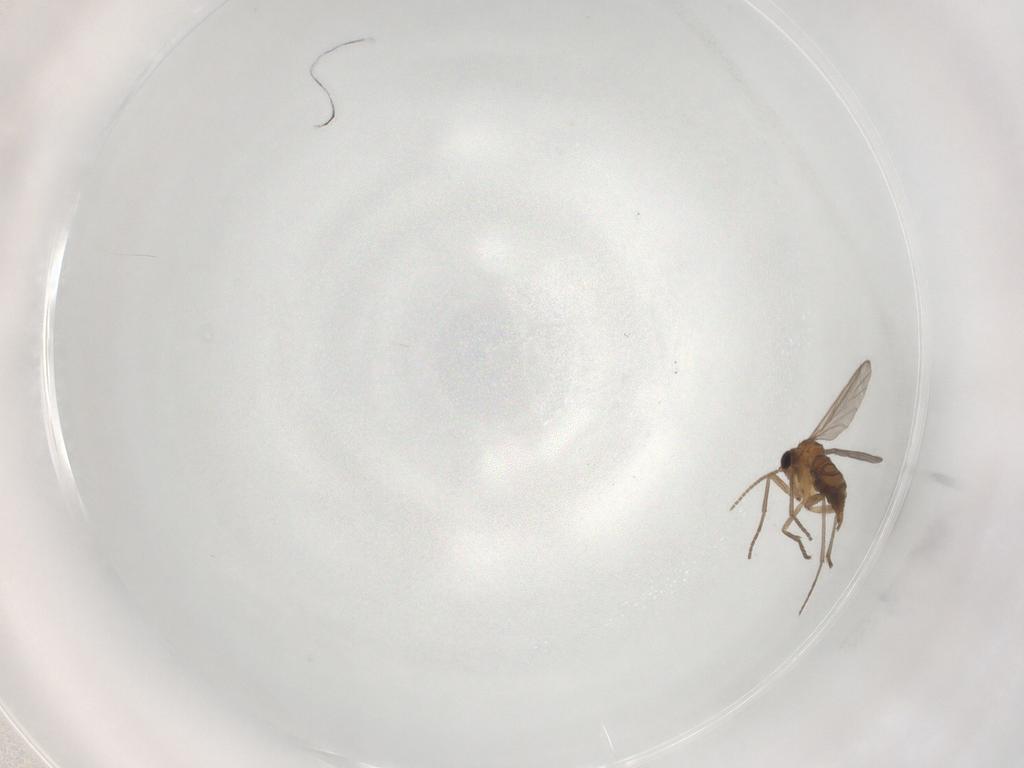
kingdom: Animalia
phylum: Arthropoda
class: Insecta
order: Diptera
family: Sciaridae
